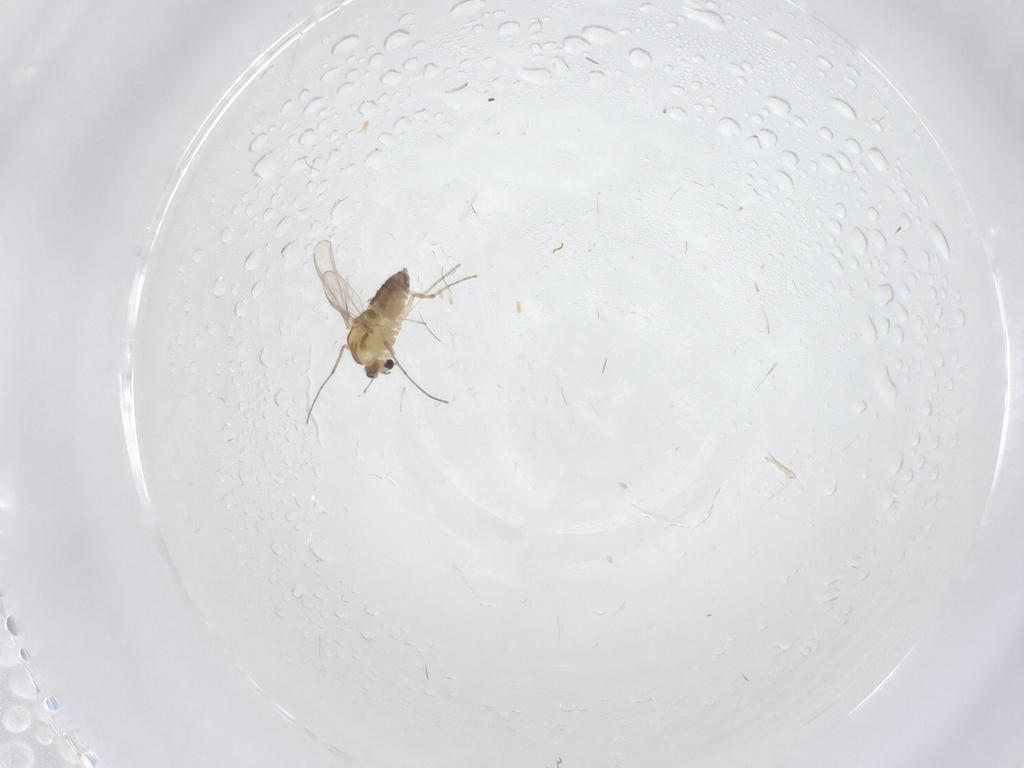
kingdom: Animalia
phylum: Arthropoda
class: Insecta
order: Diptera
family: Chironomidae
